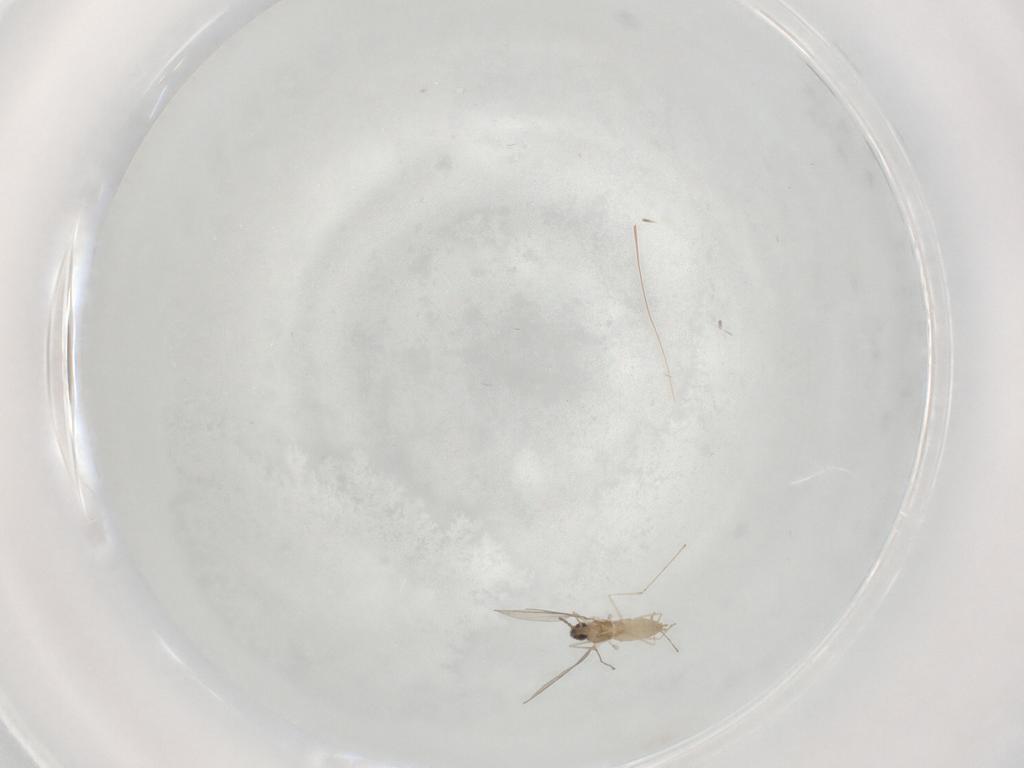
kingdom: Animalia
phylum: Arthropoda
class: Insecta
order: Diptera
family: Cecidomyiidae
